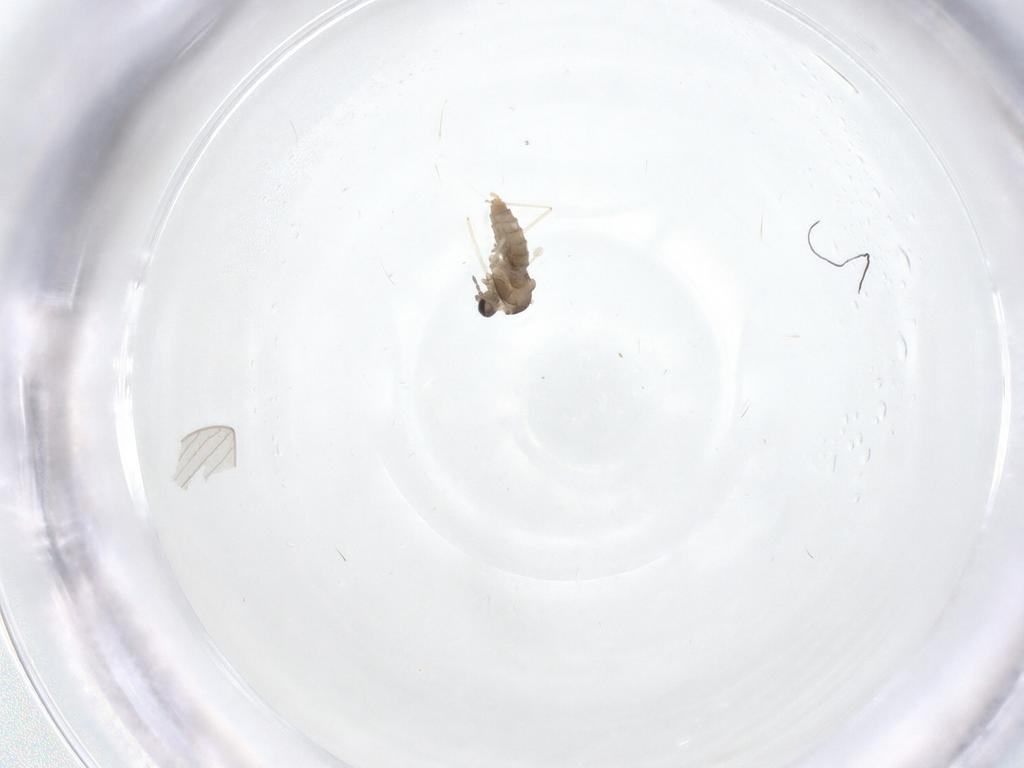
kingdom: Animalia
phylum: Arthropoda
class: Insecta
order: Diptera
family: Cecidomyiidae
